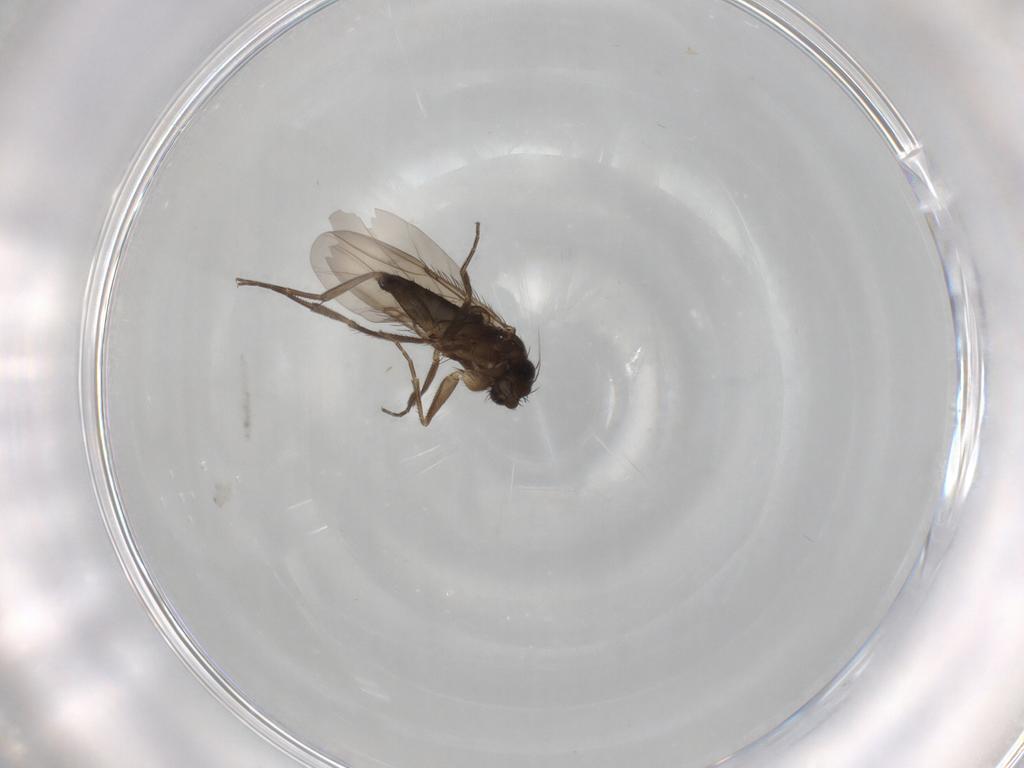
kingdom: Animalia
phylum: Arthropoda
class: Insecta
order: Diptera
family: Phoridae
